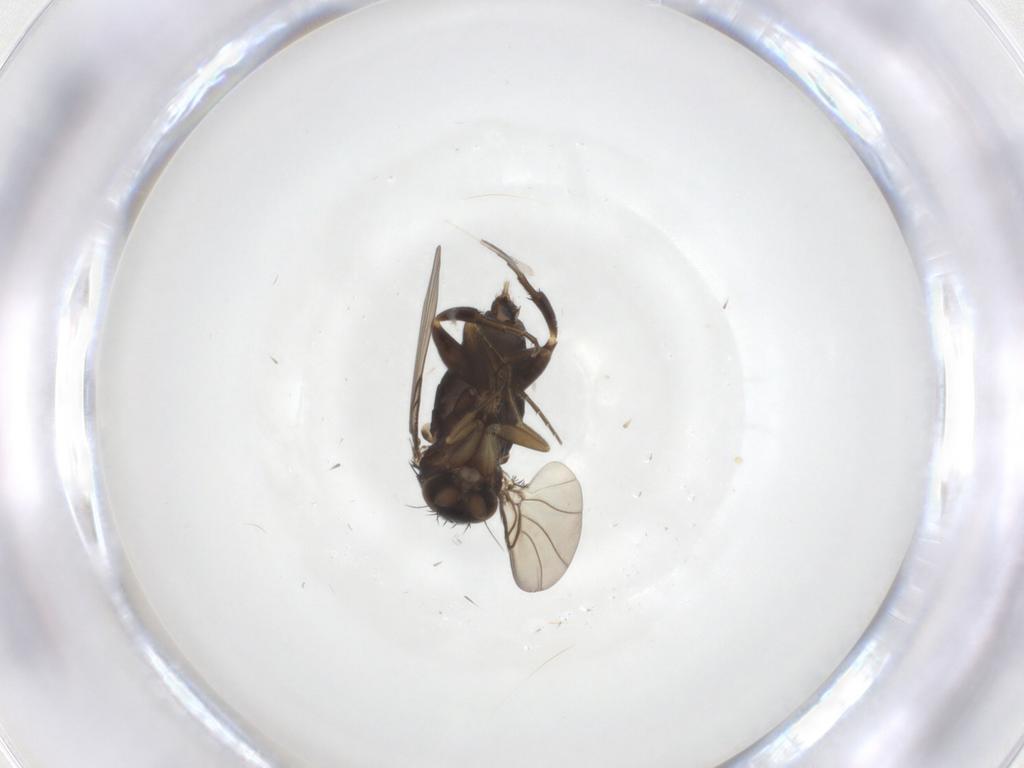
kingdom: Animalia
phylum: Arthropoda
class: Insecta
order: Diptera
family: Phoridae
